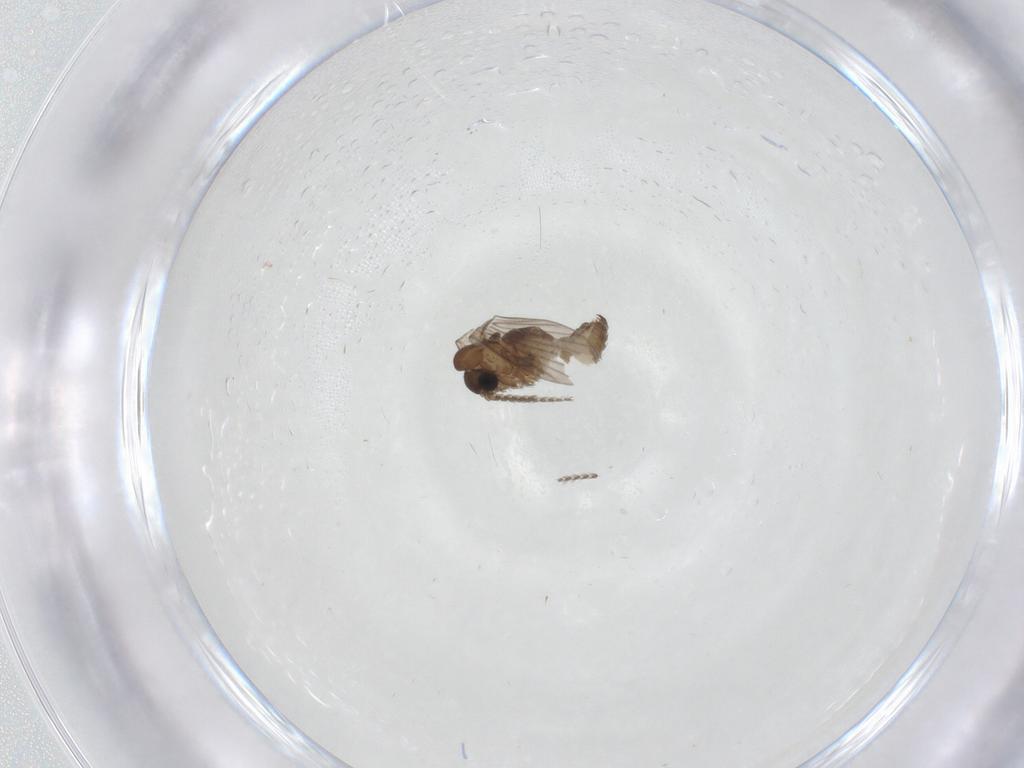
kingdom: Animalia
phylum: Arthropoda
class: Insecta
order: Diptera
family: Psychodidae
